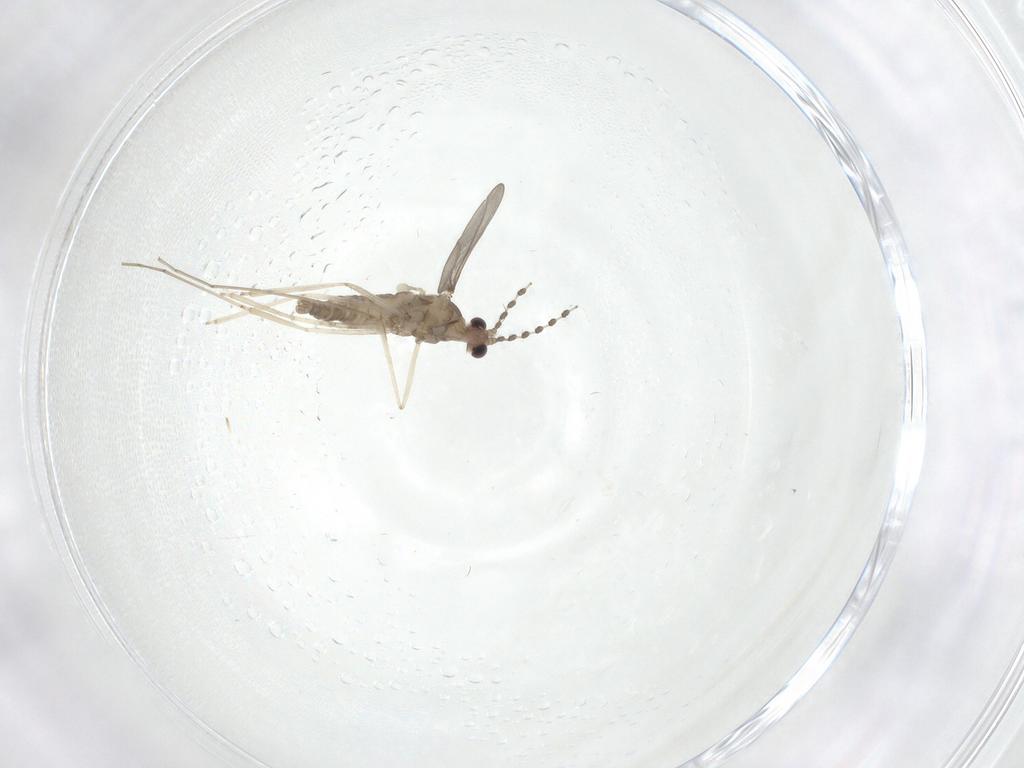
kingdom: Animalia
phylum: Arthropoda
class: Insecta
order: Diptera
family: Cecidomyiidae
